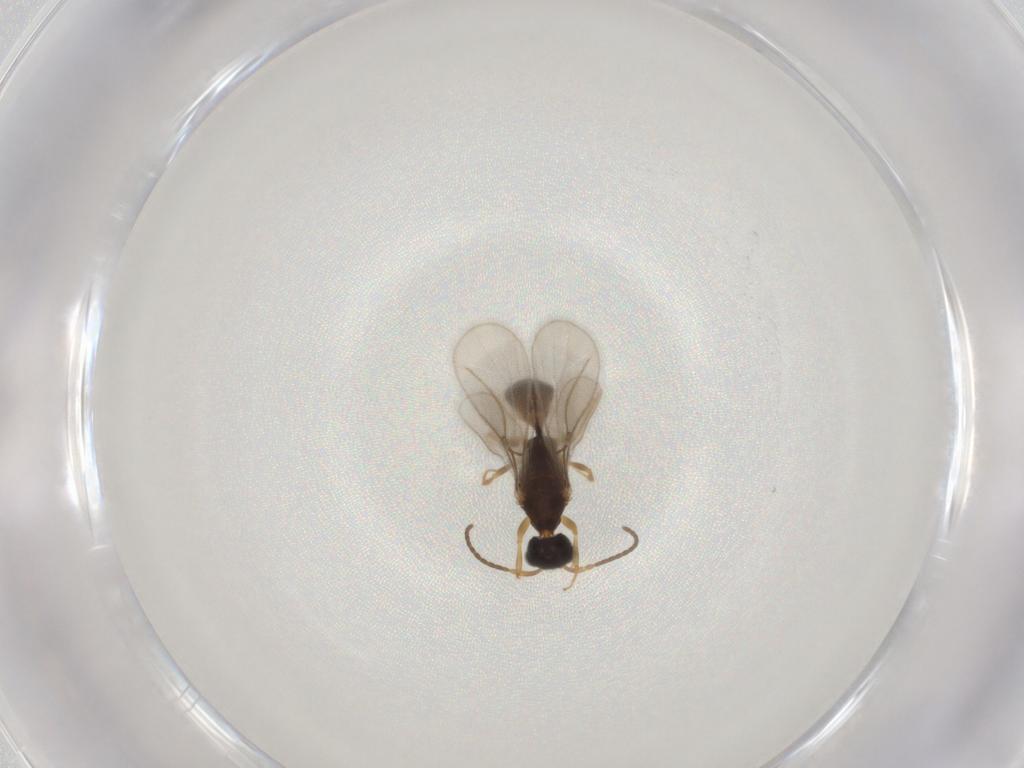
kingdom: Animalia
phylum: Arthropoda
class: Insecta
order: Hymenoptera
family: Bethylidae
